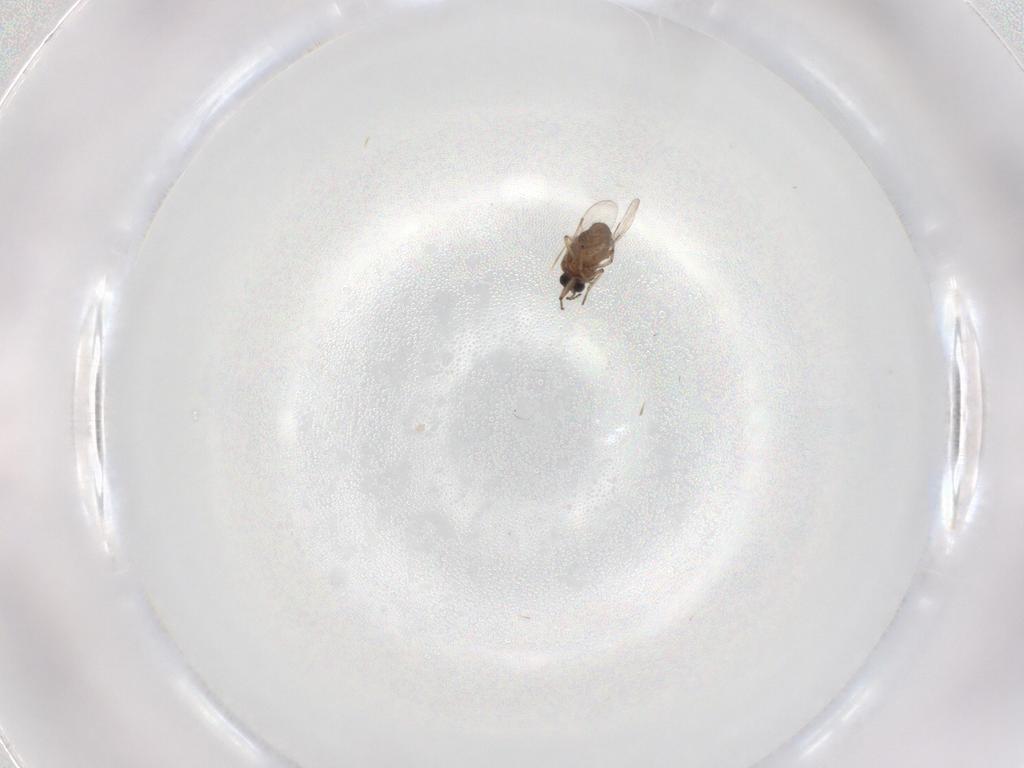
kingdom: Animalia
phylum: Arthropoda
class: Insecta
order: Diptera
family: Ceratopogonidae
